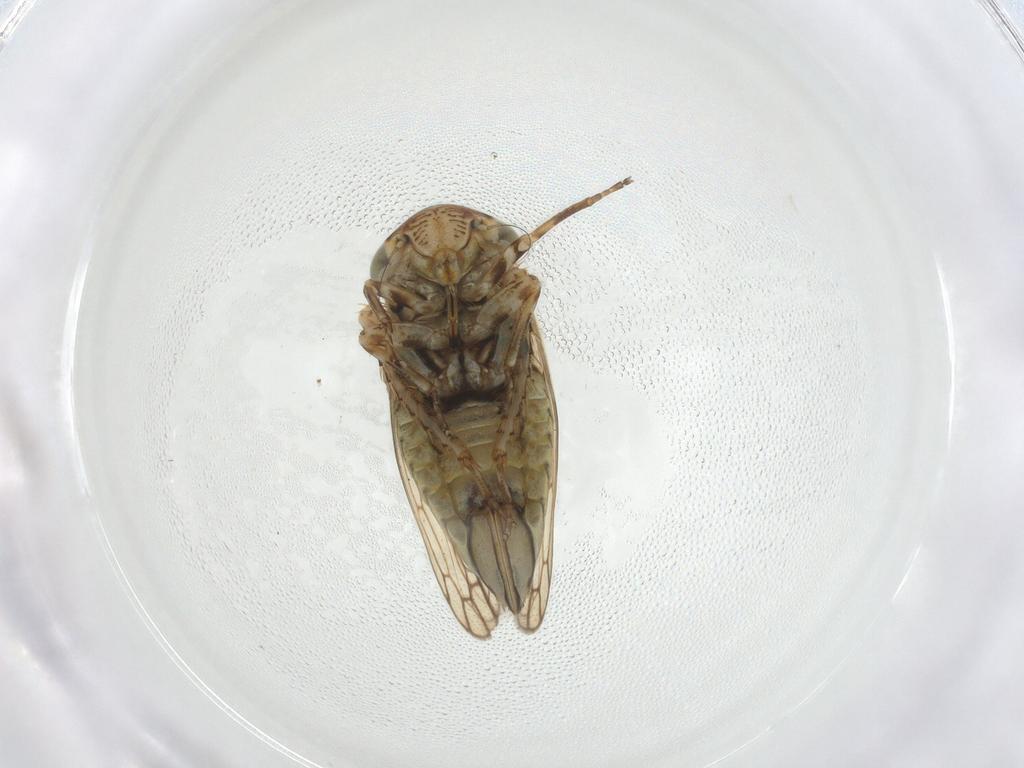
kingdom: Animalia
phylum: Arthropoda
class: Insecta
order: Hemiptera
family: Cicadellidae
